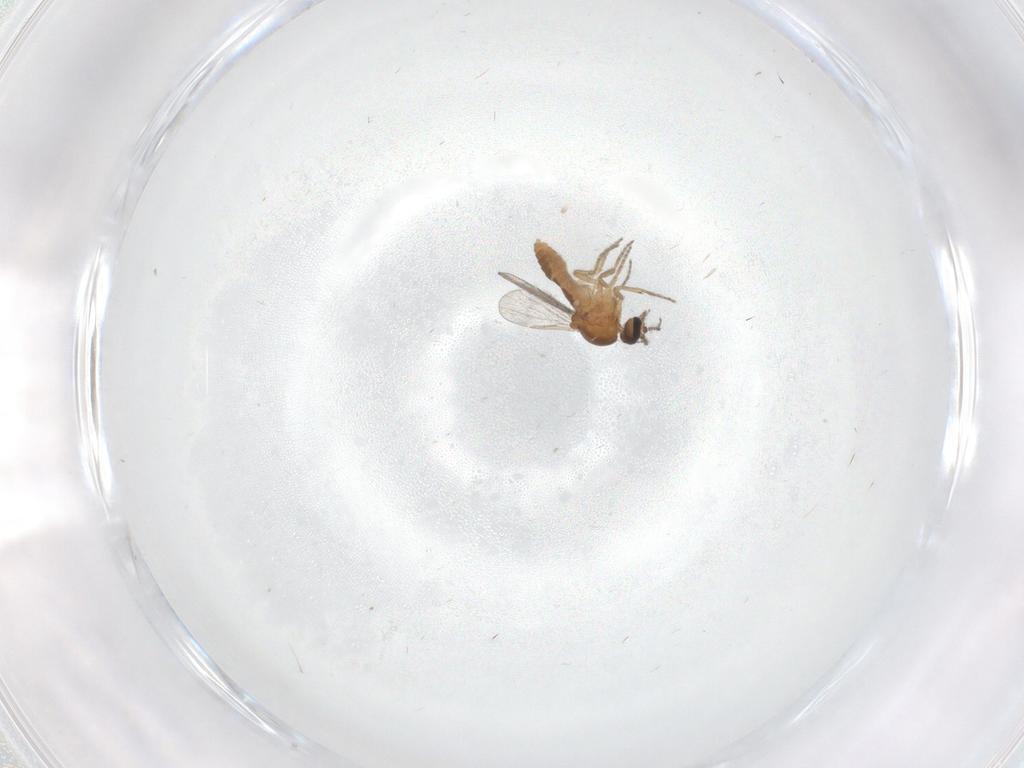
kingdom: Animalia
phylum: Arthropoda
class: Insecta
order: Diptera
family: Ceratopogonidae
